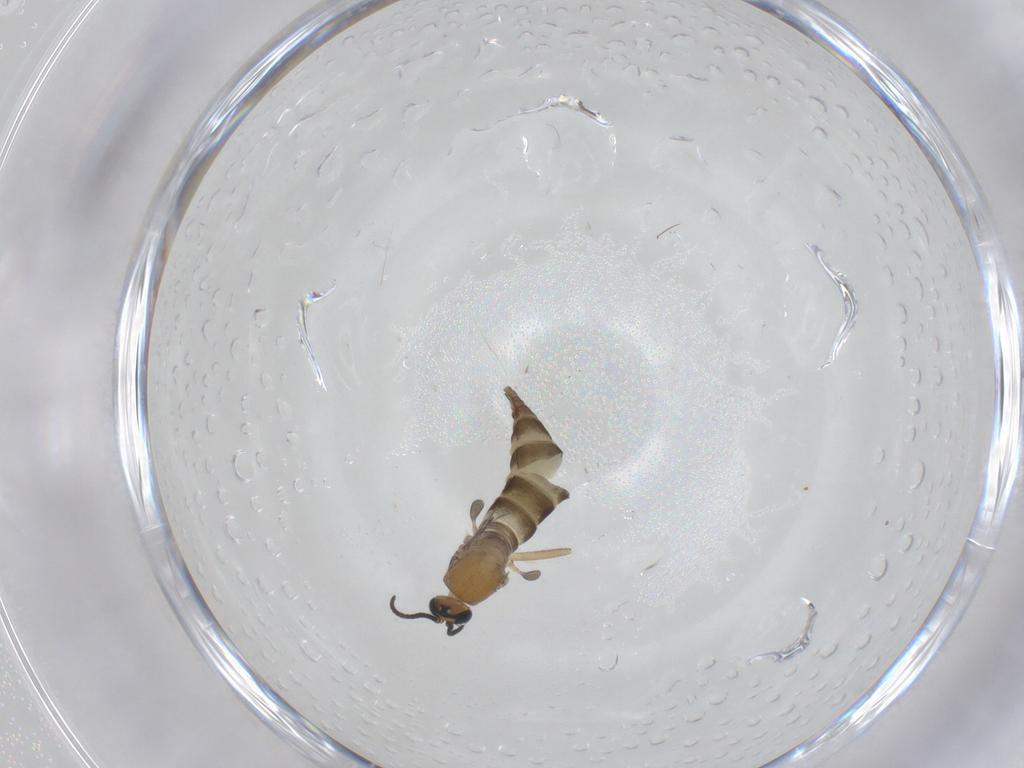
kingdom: Animalia
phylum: Arthropoda
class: Insecta
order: Diptera
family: Sciaridae
